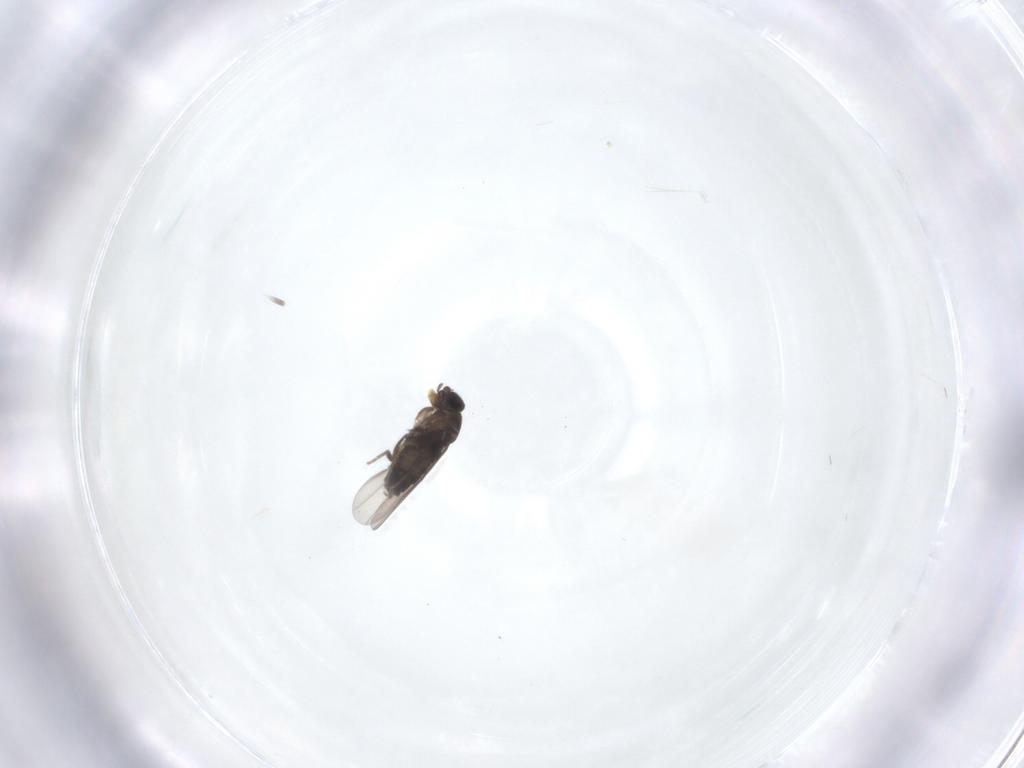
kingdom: Animalia
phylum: Arthropoda
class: Insecta
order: Diptera
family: Phoridae
